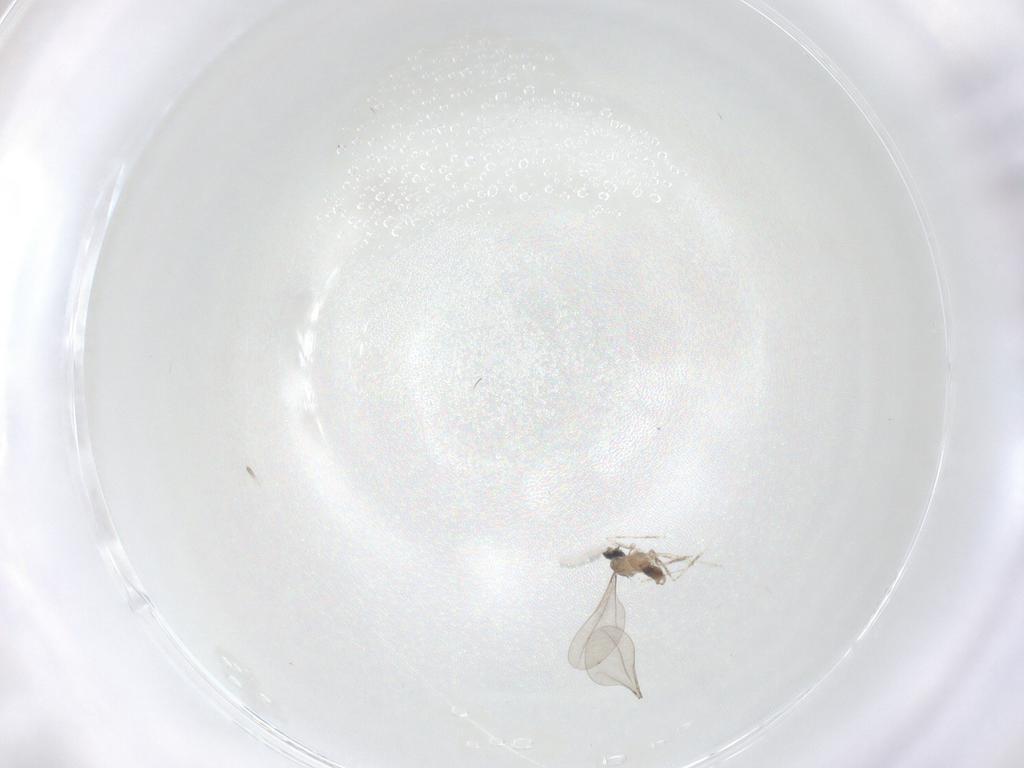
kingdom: Animalia
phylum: Arthropoda
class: Insecta
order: Diptera
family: Cecidomyiidae
